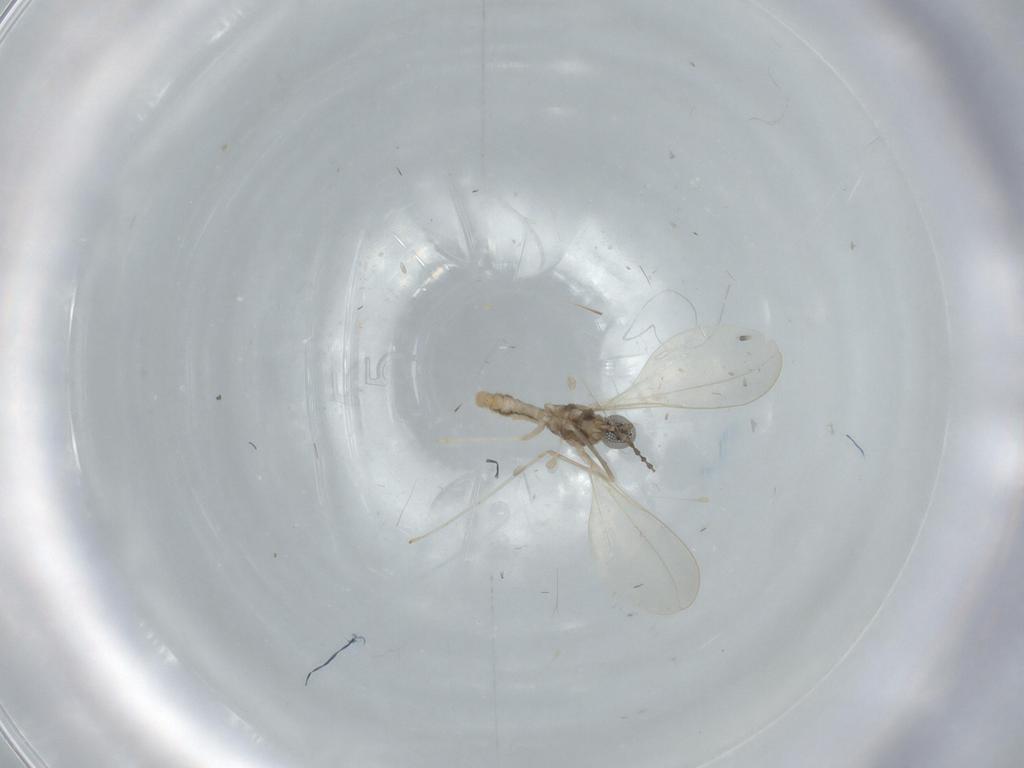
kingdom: Animalia
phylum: Arthropoda
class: Insecta
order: Diptera
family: Cecidomyiidae
